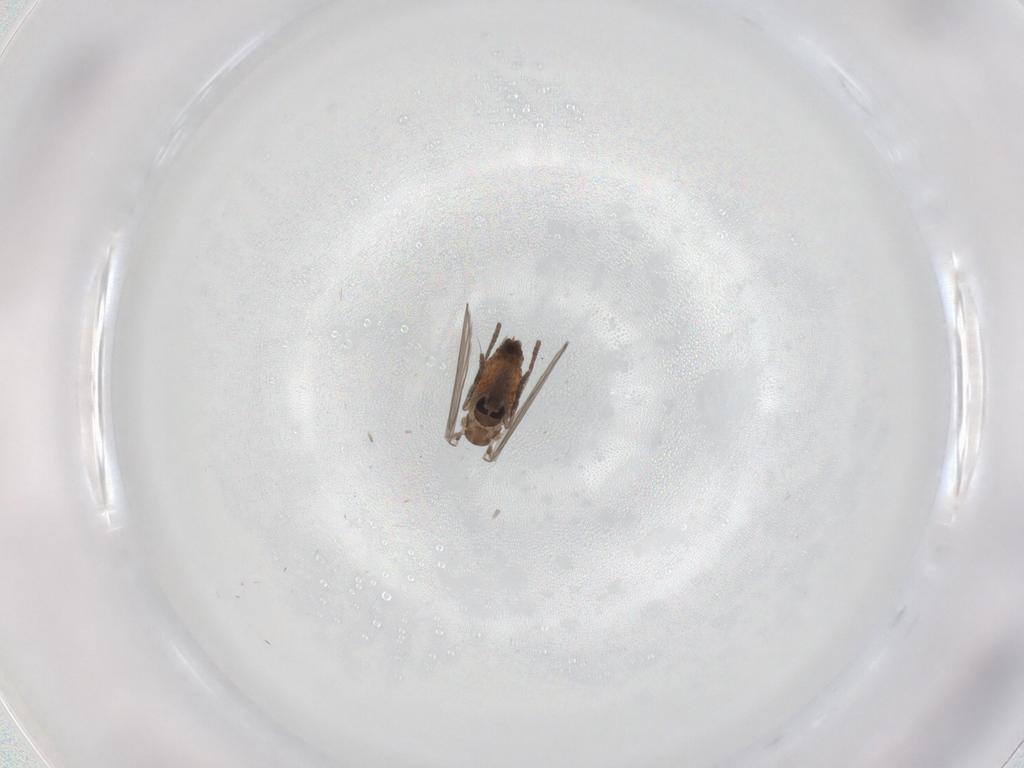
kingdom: Animalia
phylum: Arthropoda
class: Insecta
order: Diptera
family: Psychodidae
